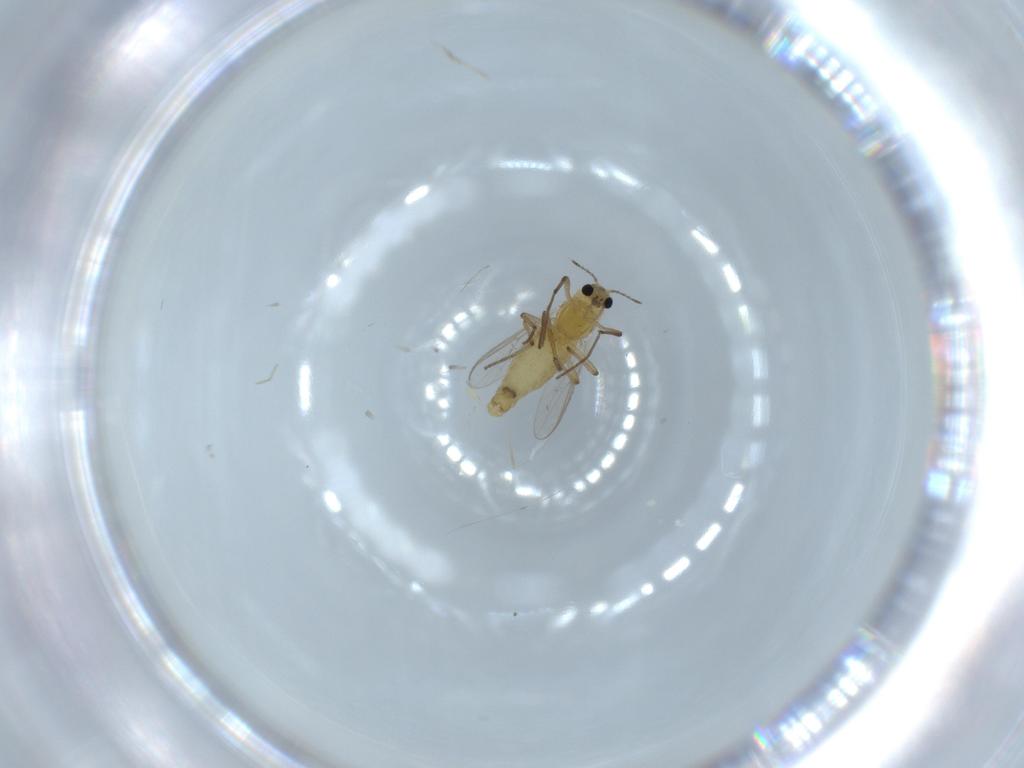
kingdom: Animalia
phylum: Arthropoda
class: Insecta
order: Diptera
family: Chironomidae
